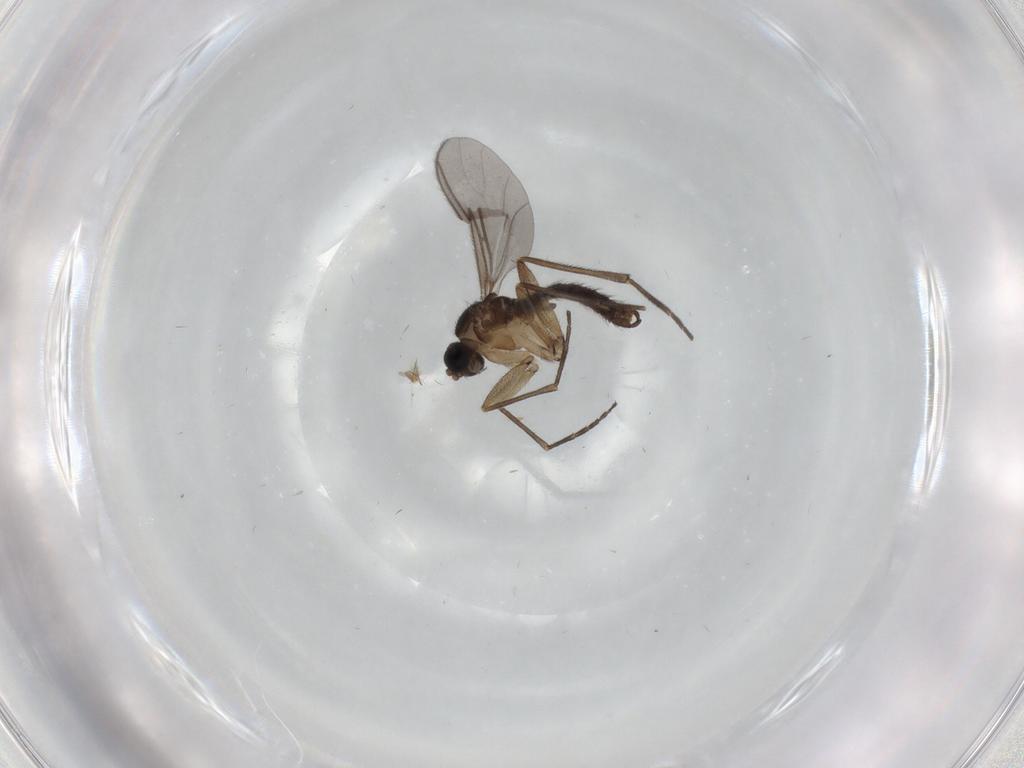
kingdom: Animalia
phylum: Arthropoda
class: Insecta
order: Diptera
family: Sciaridae
